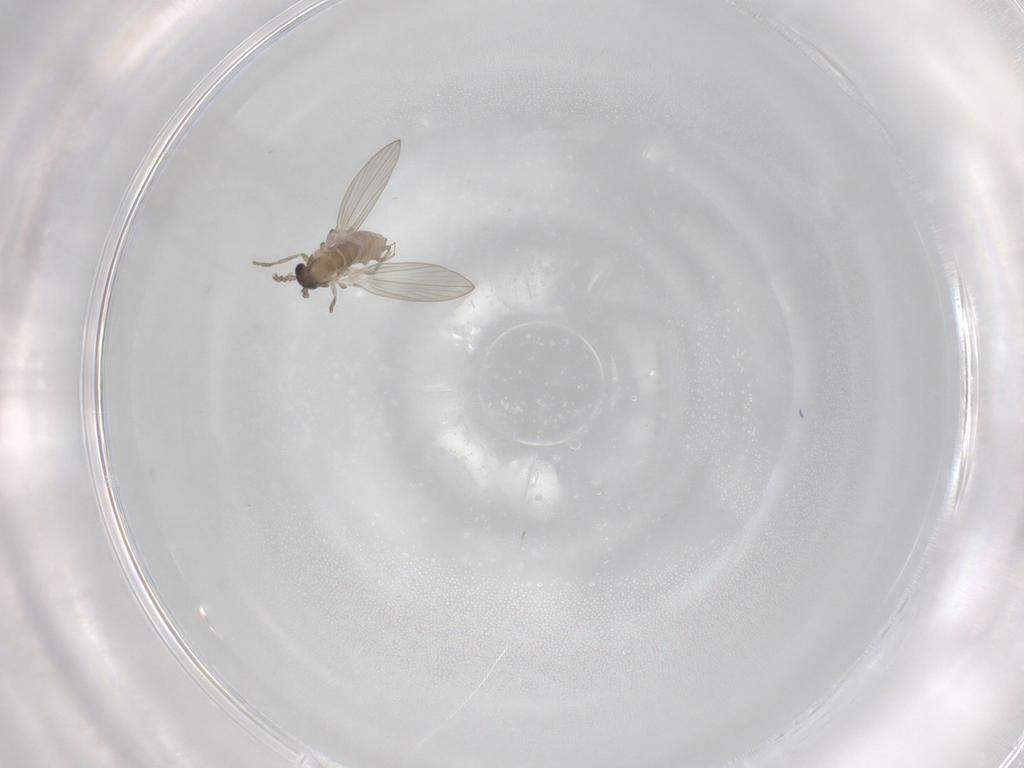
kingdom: Animalia
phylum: Arthropoda
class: Insecta
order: Diptera
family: Psychodidae
